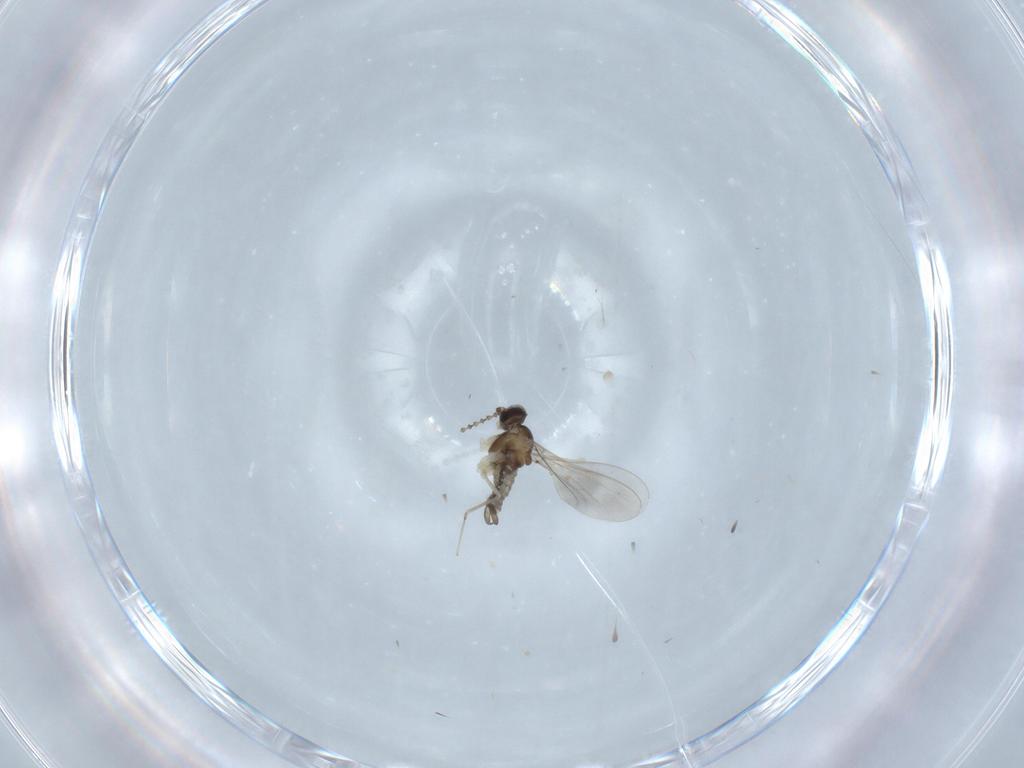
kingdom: Animalia
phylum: Arthropoda
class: Insecta
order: Diptera
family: Cecidomyiidae
